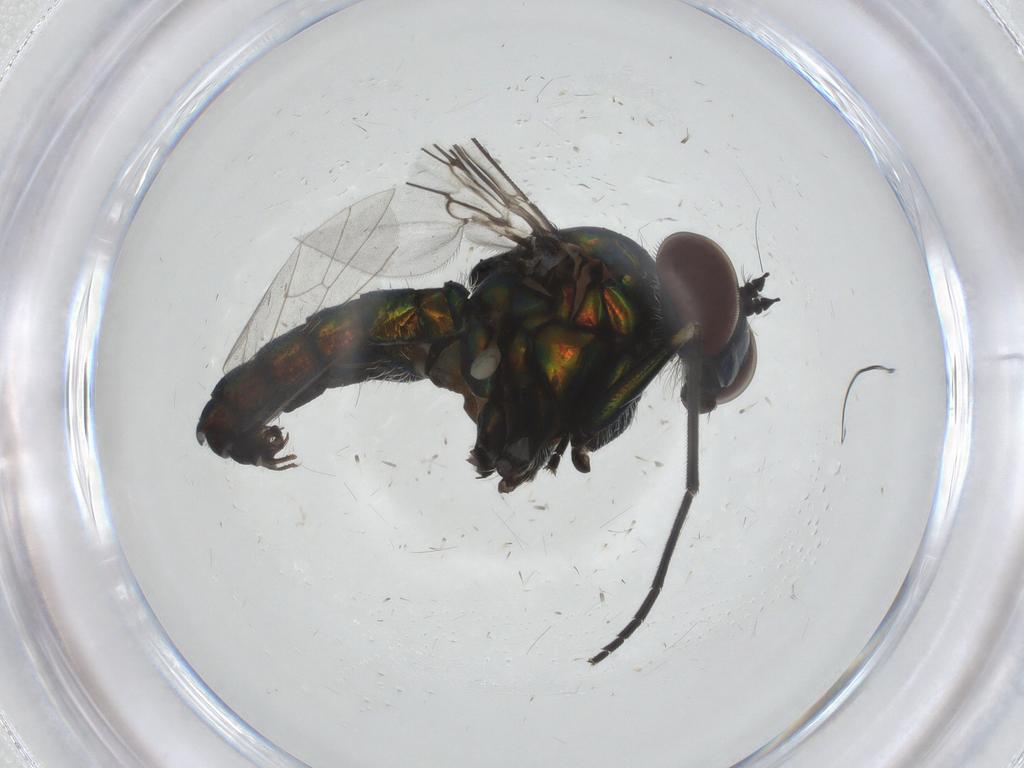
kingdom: Animalia
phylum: Arthropoda
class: Insecta
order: Diptera
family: Dolichopodidae
